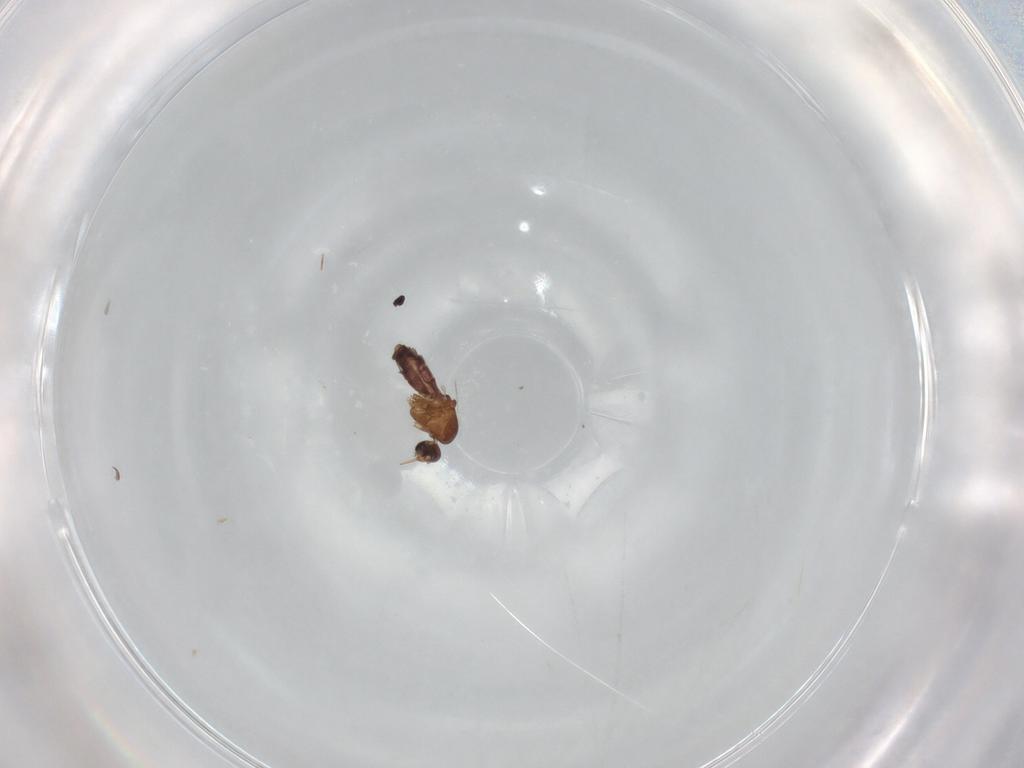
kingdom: Animalia
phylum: Arthropoda
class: Insecta
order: Diptera
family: Ceratopogonidae
